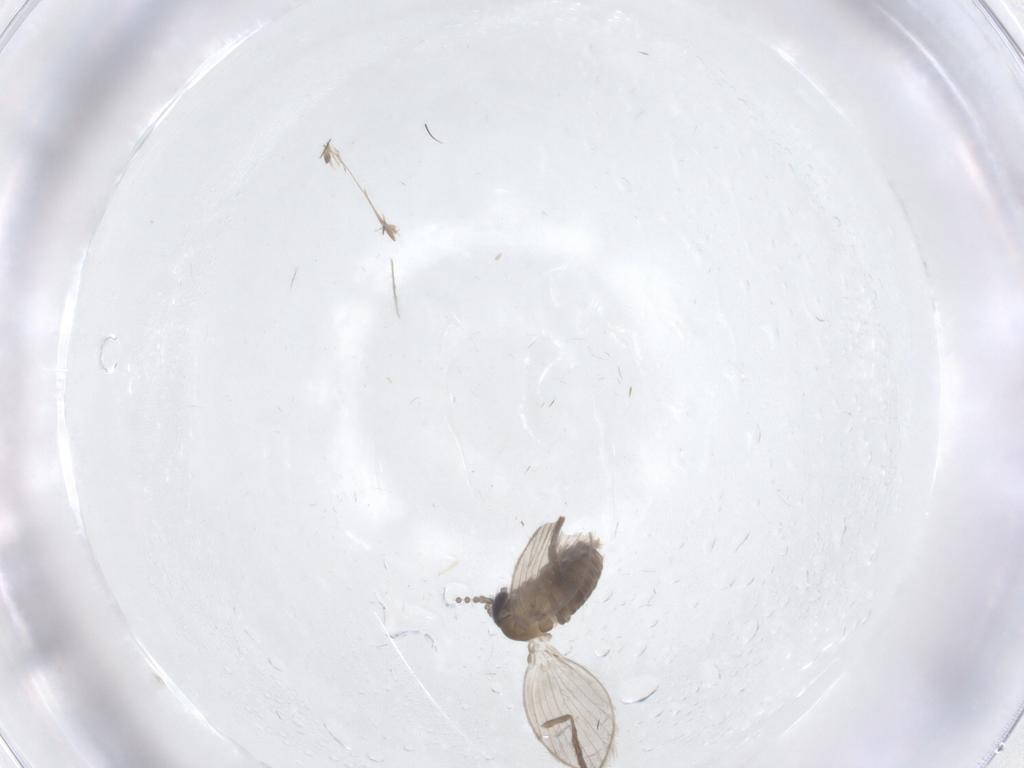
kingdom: Animalia
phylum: Arthropoda
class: Insecta
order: Diptera
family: Psychodidae
